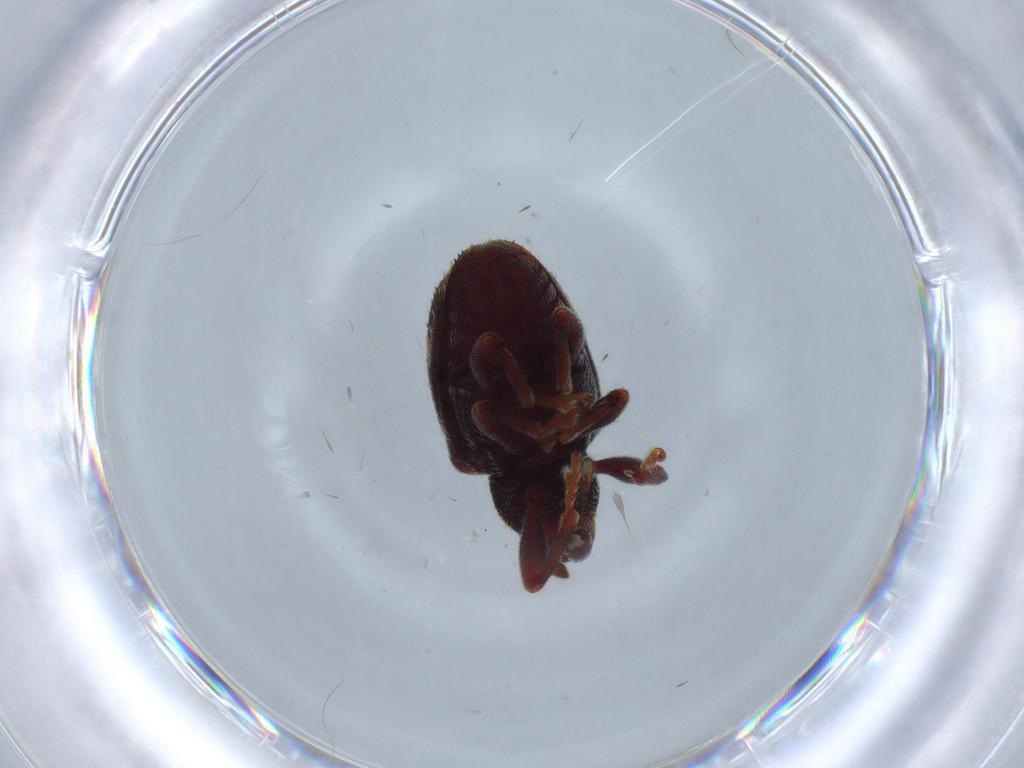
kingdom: Animalia
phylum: Arthropoda
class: Insecta
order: Coleoptera
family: Curculionidae
